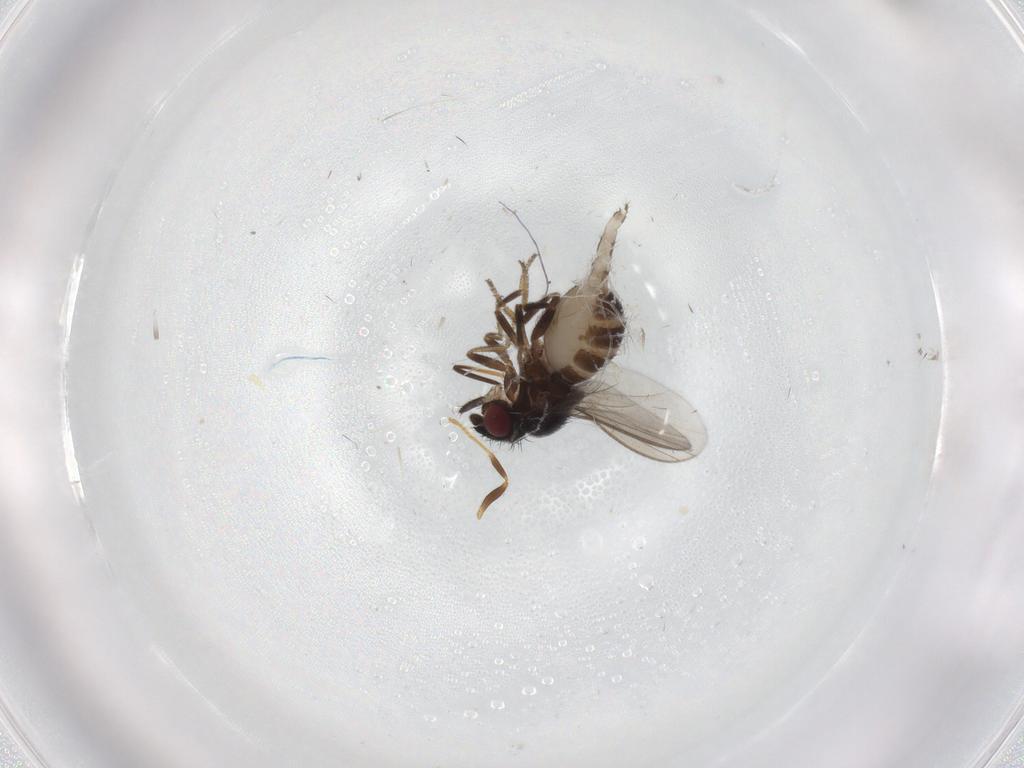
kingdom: Animalia
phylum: Arthropoda
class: Insecta
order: Diptera
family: Milichiidae
